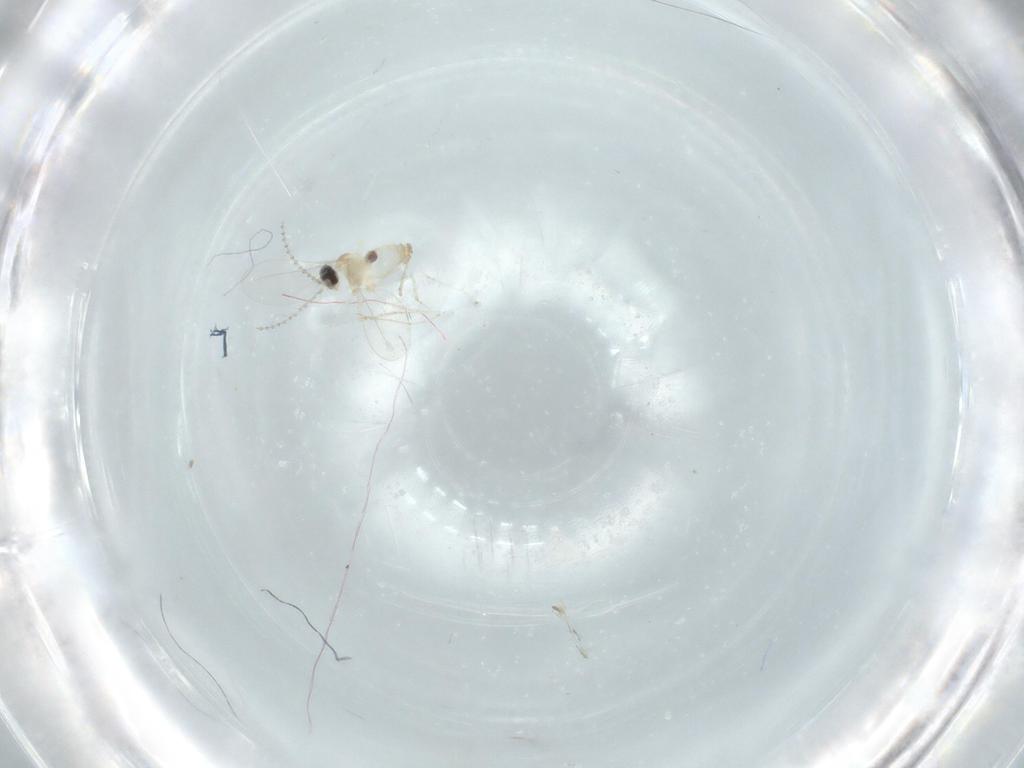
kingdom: Animalia
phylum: Arthropoda
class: Insecta
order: Diptera
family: Cecidomyiidae
